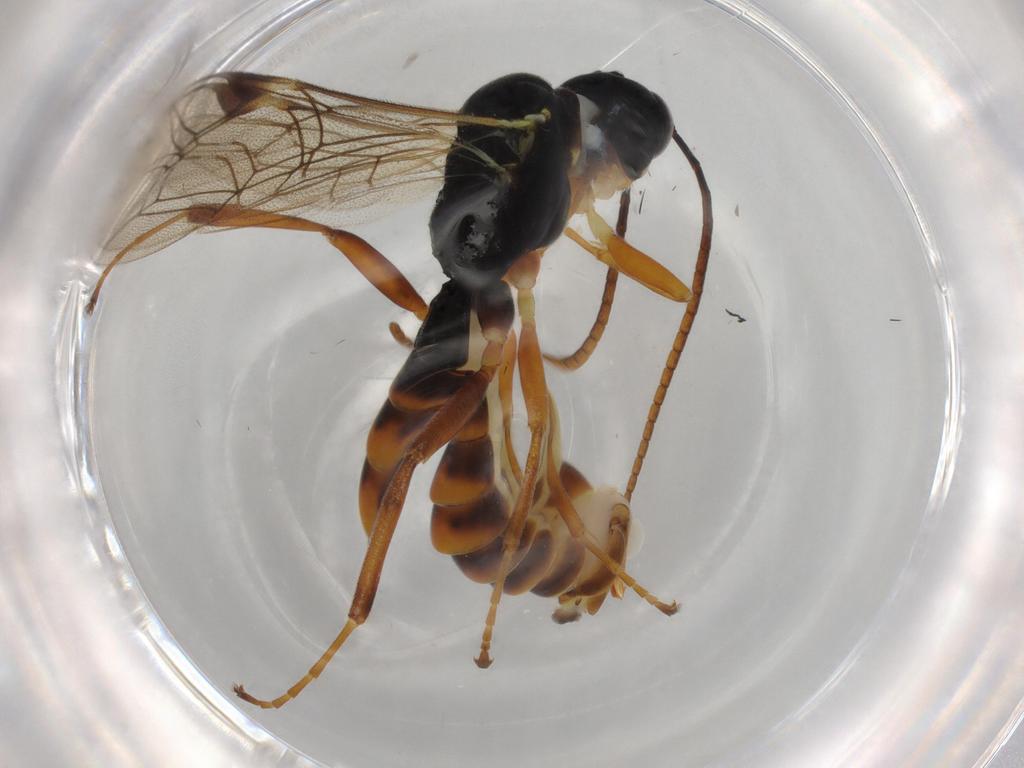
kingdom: Animalia
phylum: Arthropoda
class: Insecta
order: Hymenoptera
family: Ichneumonidae
